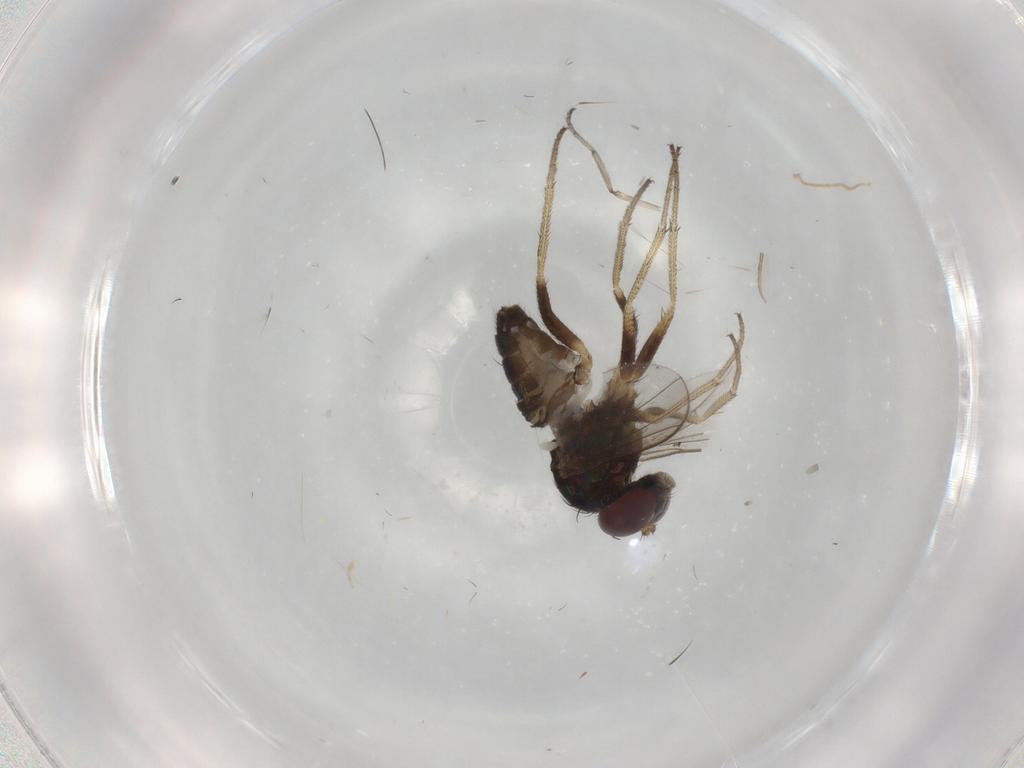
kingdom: Animalia
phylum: Arthropoda
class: Insecta
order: Diptera
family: Ceratopogonidae
